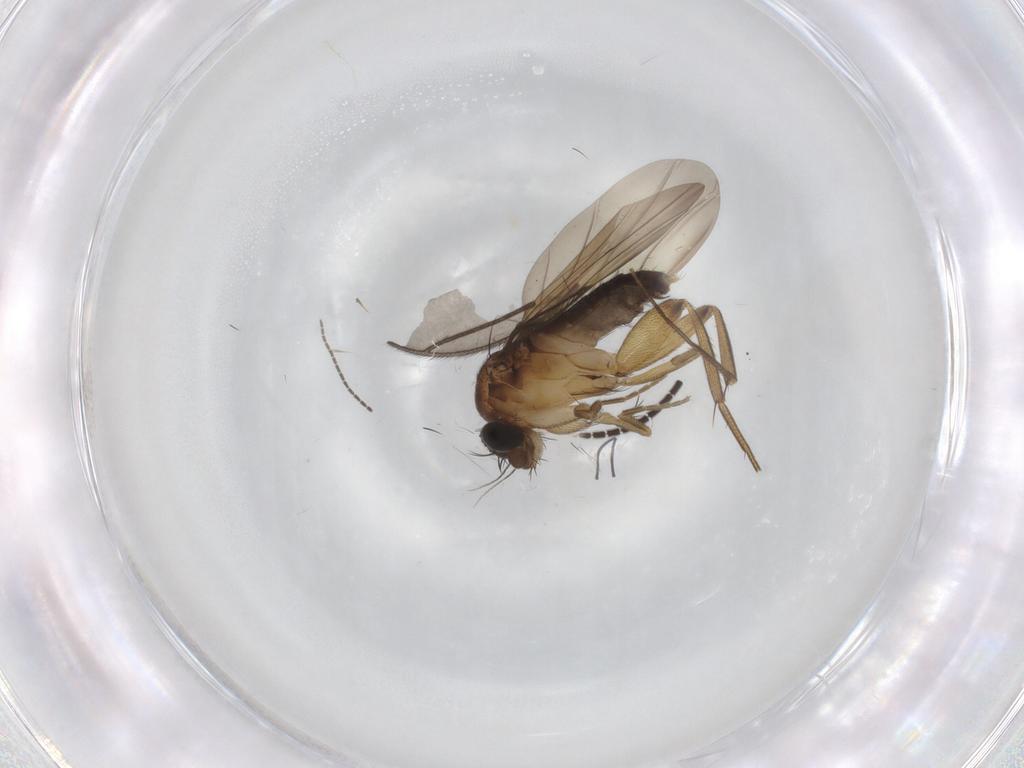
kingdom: Animalia
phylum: Arthropoda
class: Insecta
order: Diptera
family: Phoridae
